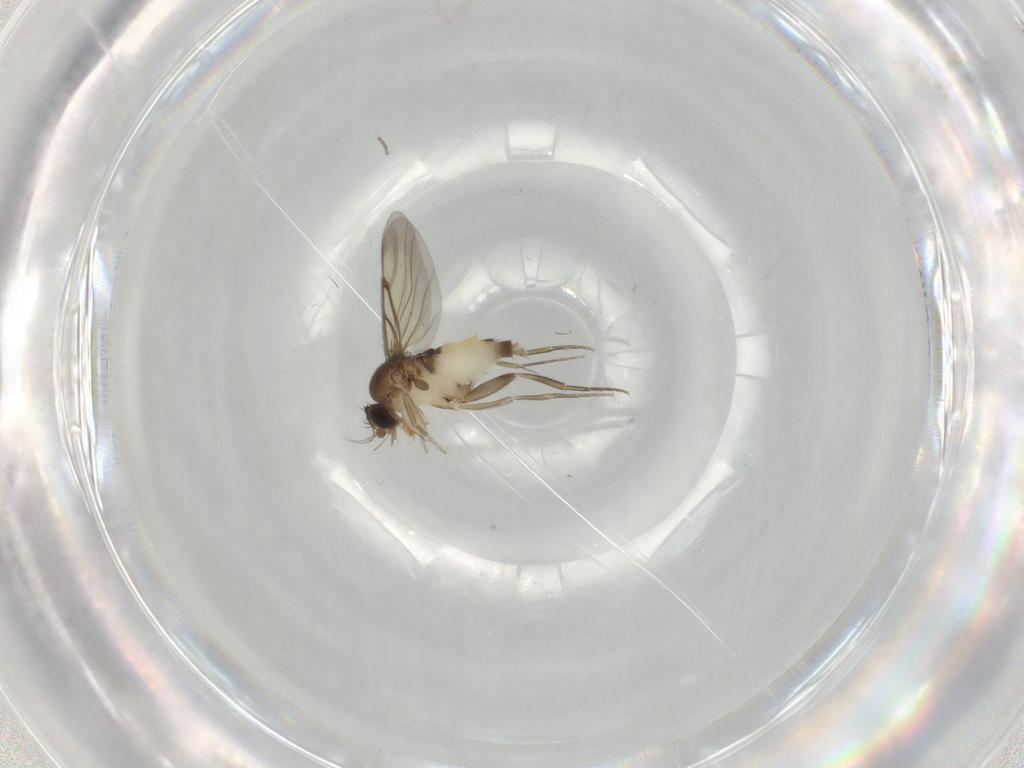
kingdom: Animalia
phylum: Arthropoda
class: Insecta
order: Diptera
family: Phoridae
